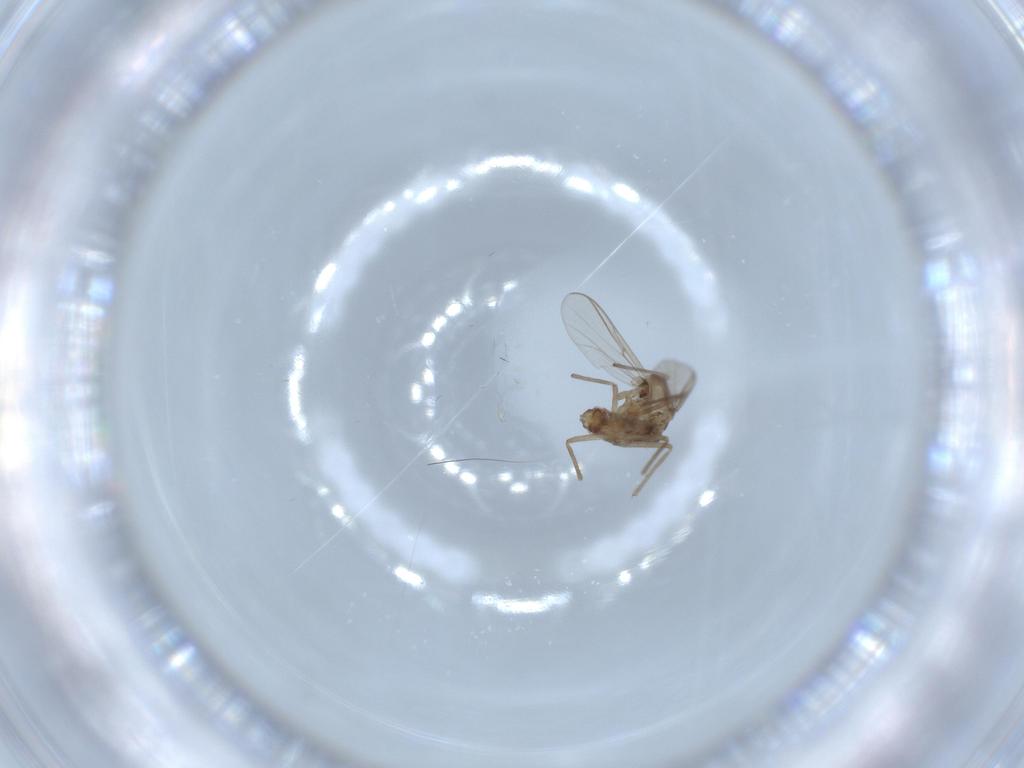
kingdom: Animalia
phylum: Arthropoda
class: Insecta
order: Diptera
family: Chironomidae
